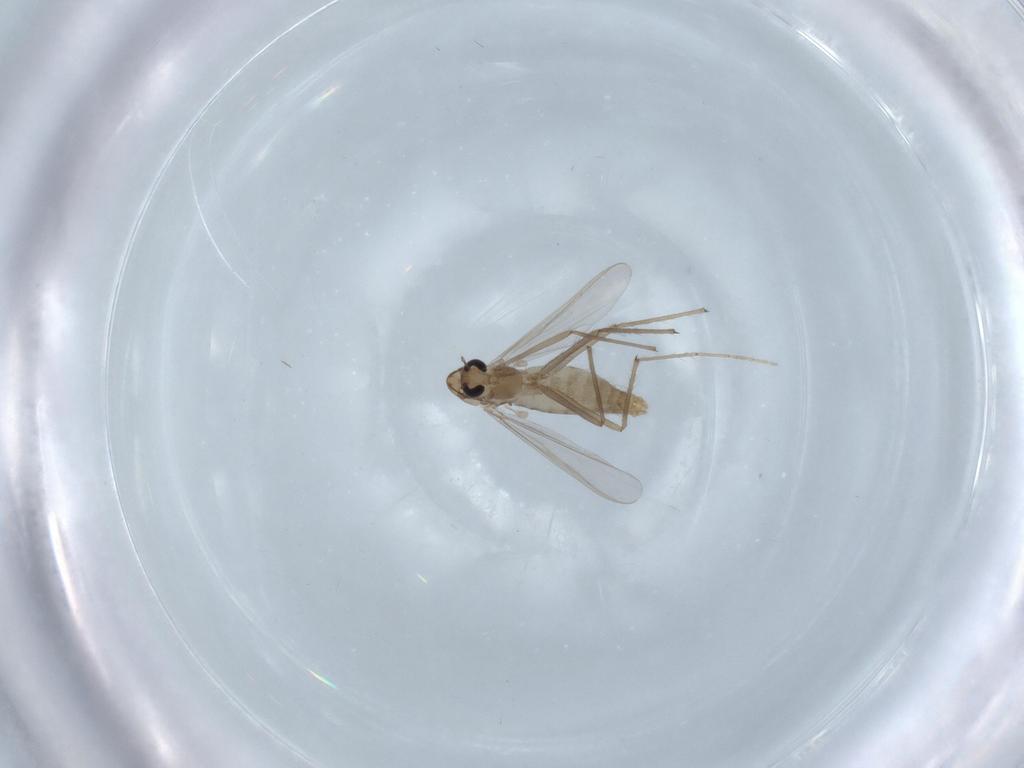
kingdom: Animalia
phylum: Arthropoda
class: Insecta
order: Diptera
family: Chironomidae
